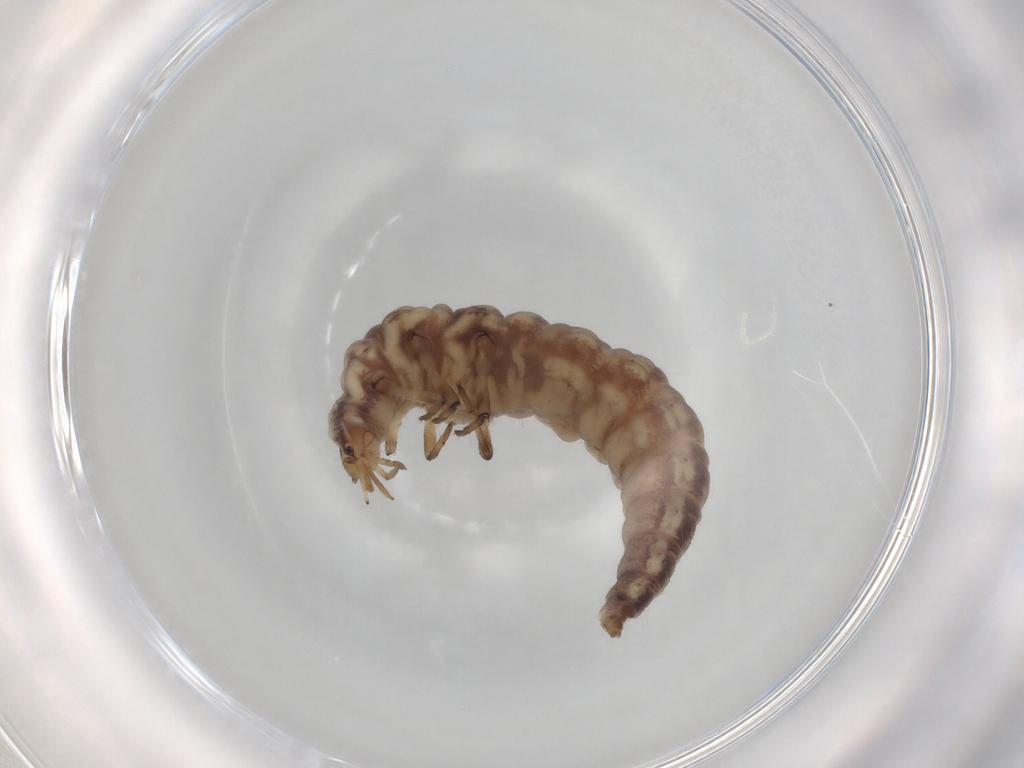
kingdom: Animalia
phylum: Arthropoda
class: Insecta
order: Neuroptera
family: Hemerobiidae
